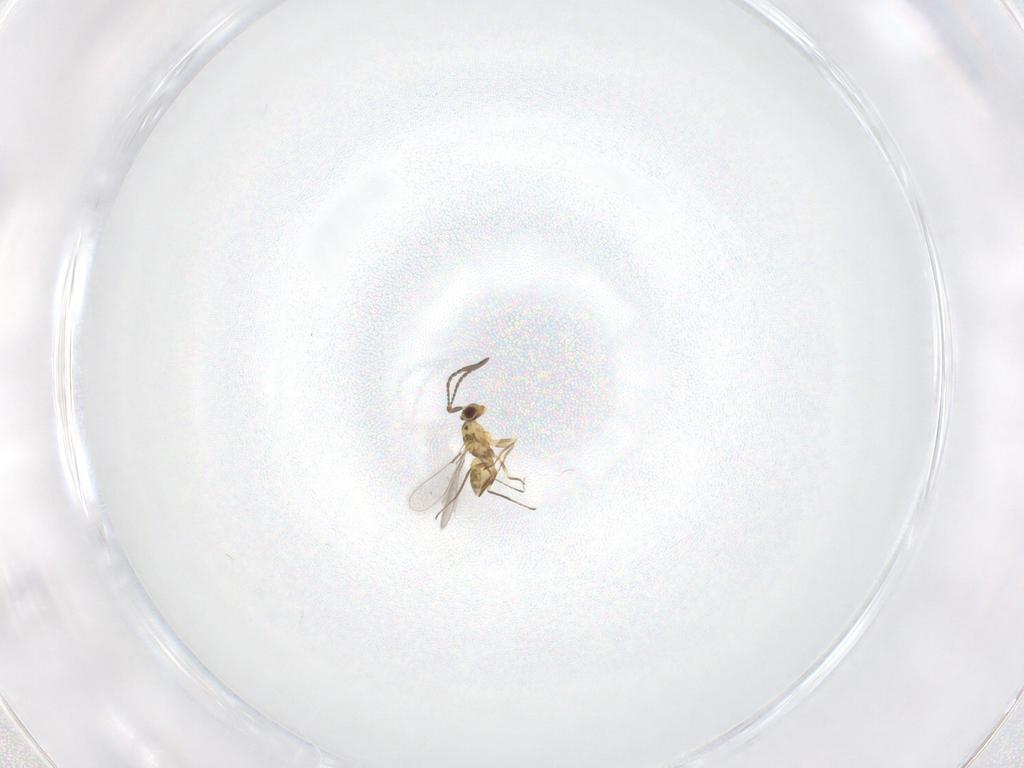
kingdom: Animalia
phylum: Arthropoda
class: Insecta
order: Hymenoptera
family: Mymaridae
